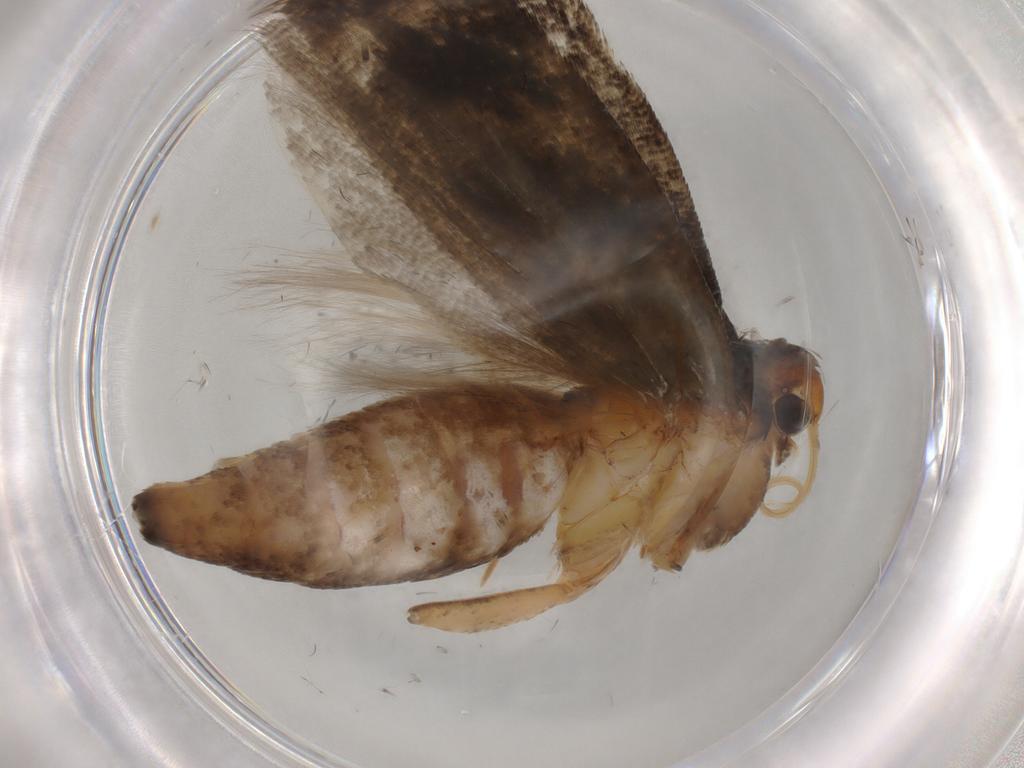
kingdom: Animalia
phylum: Arthropoda
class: Insecta
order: Lepidoptera
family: Gelechiidae
